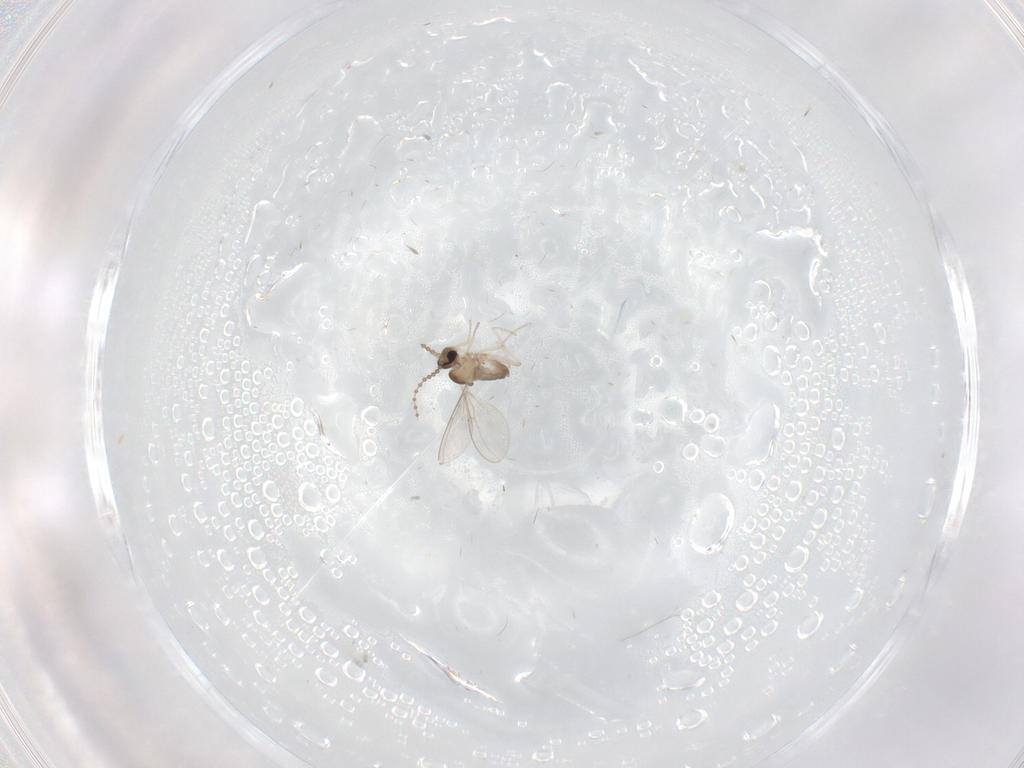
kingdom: Animalia
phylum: Arthropoda
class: Insecta
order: Diptera
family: Cecidomyiidae
